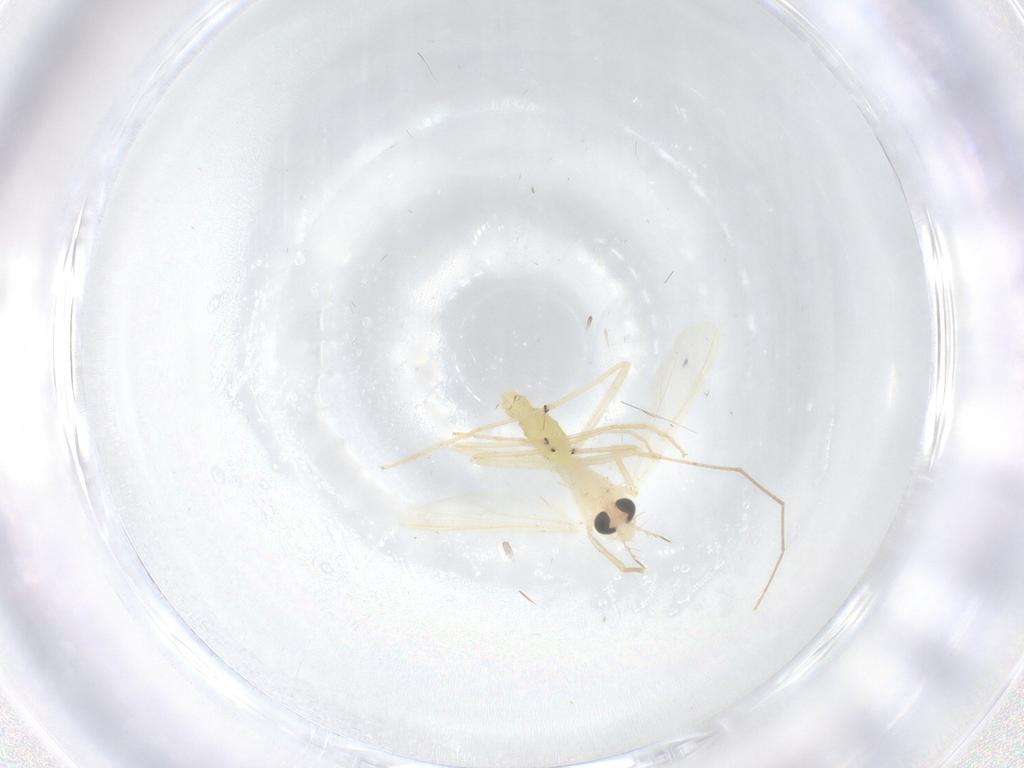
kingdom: Animalia
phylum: Arthropoda
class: Insecta
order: Diptera
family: Chironomidae
